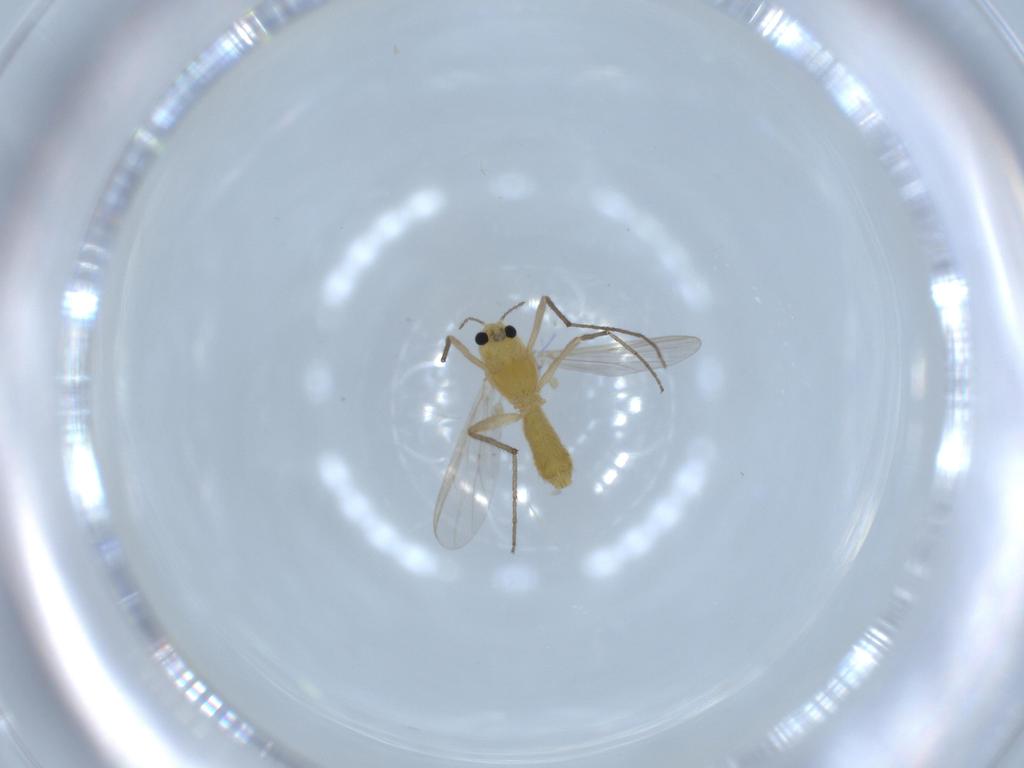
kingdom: Animalia
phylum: Arthropoda
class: Insecta
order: Diptera
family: Chironomidae
